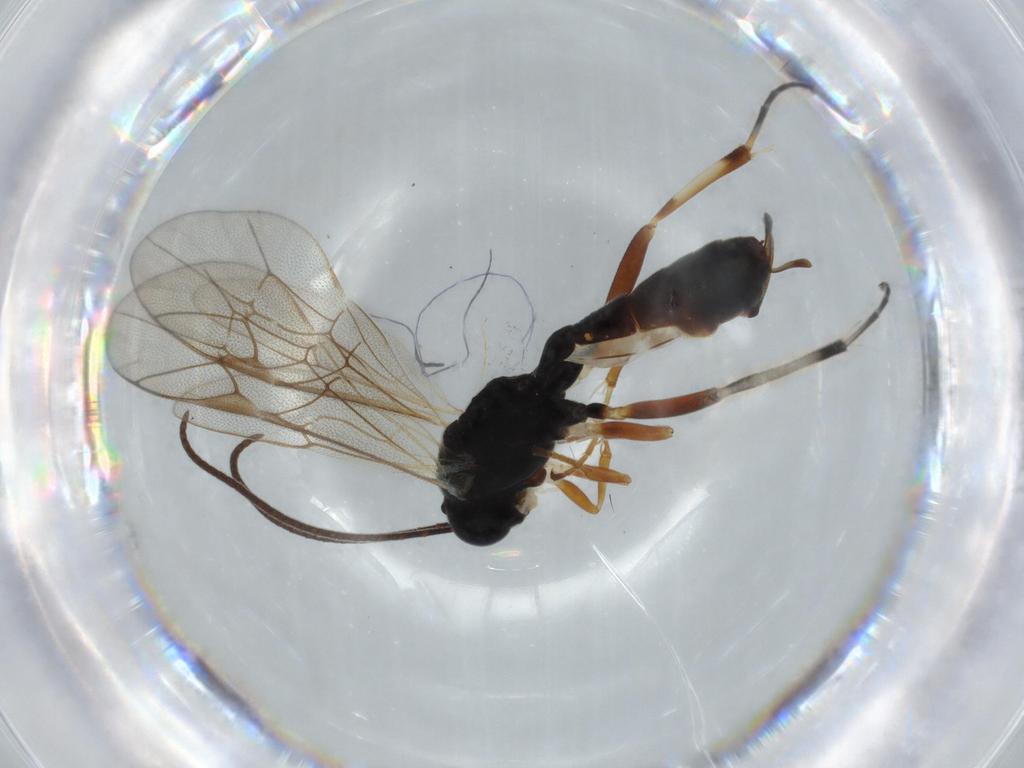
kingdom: Animalia
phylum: Arthropoda
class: Insecta
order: Hymenoptera
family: Ichneumonidae
